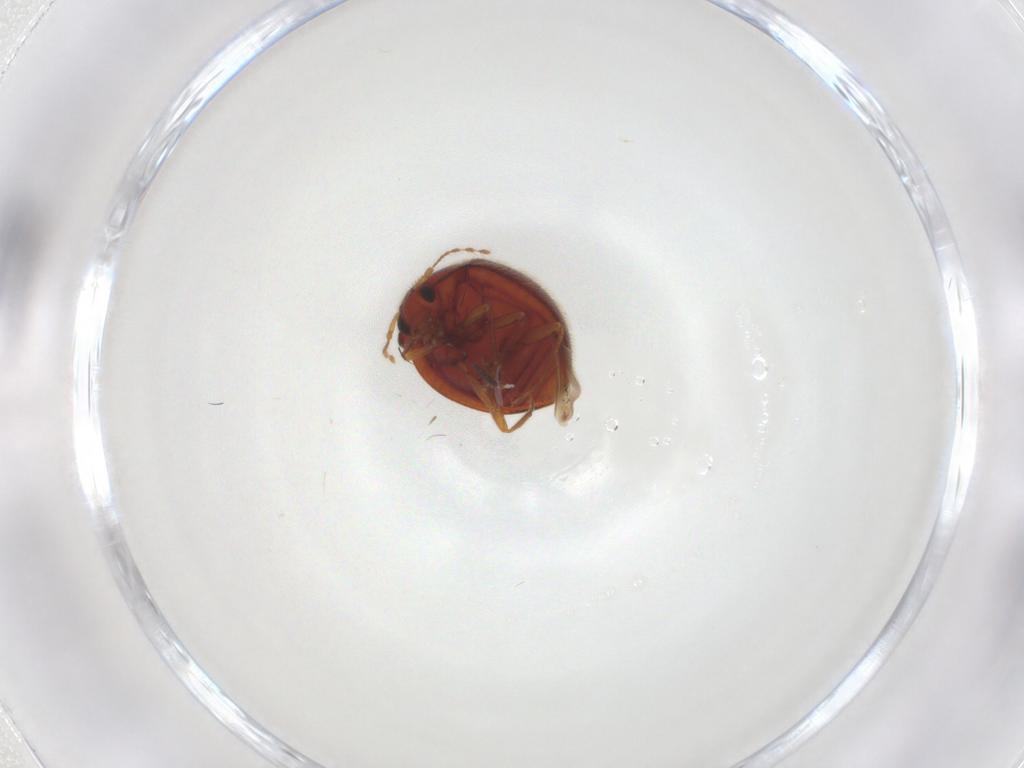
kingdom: Animalia
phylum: Arthropoda
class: Insecta
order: Coleoptera
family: Anamorphidae
